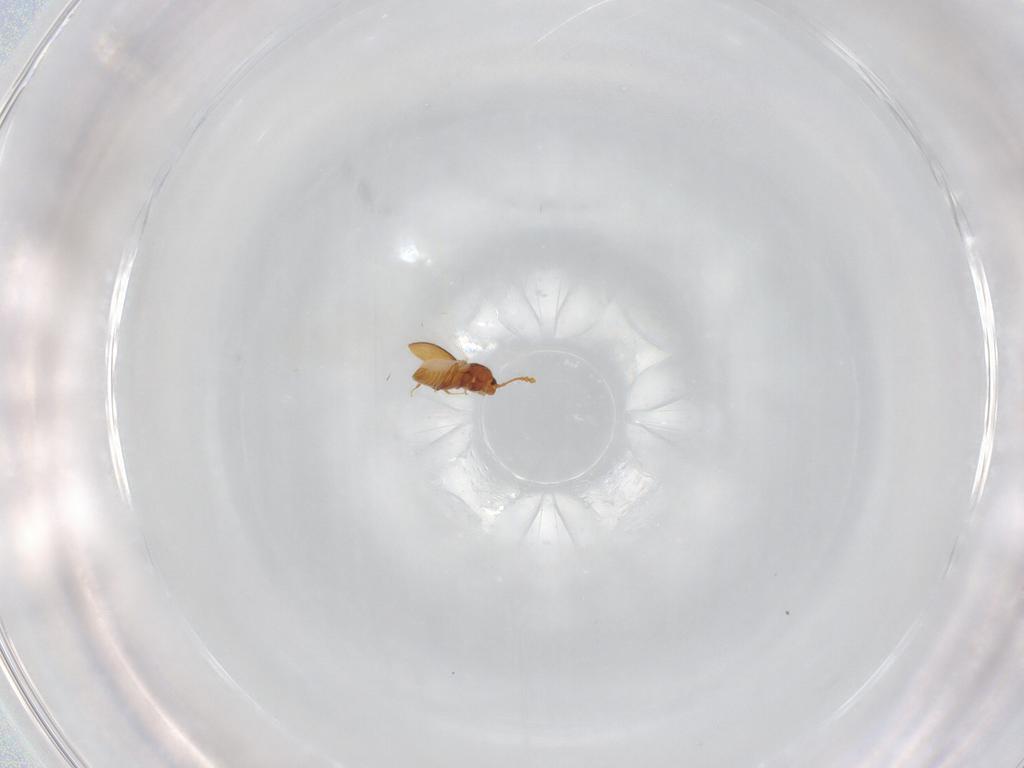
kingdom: Animalia
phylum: Arthropoda
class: Insecta
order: Coleoptera
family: Staphylinidae
